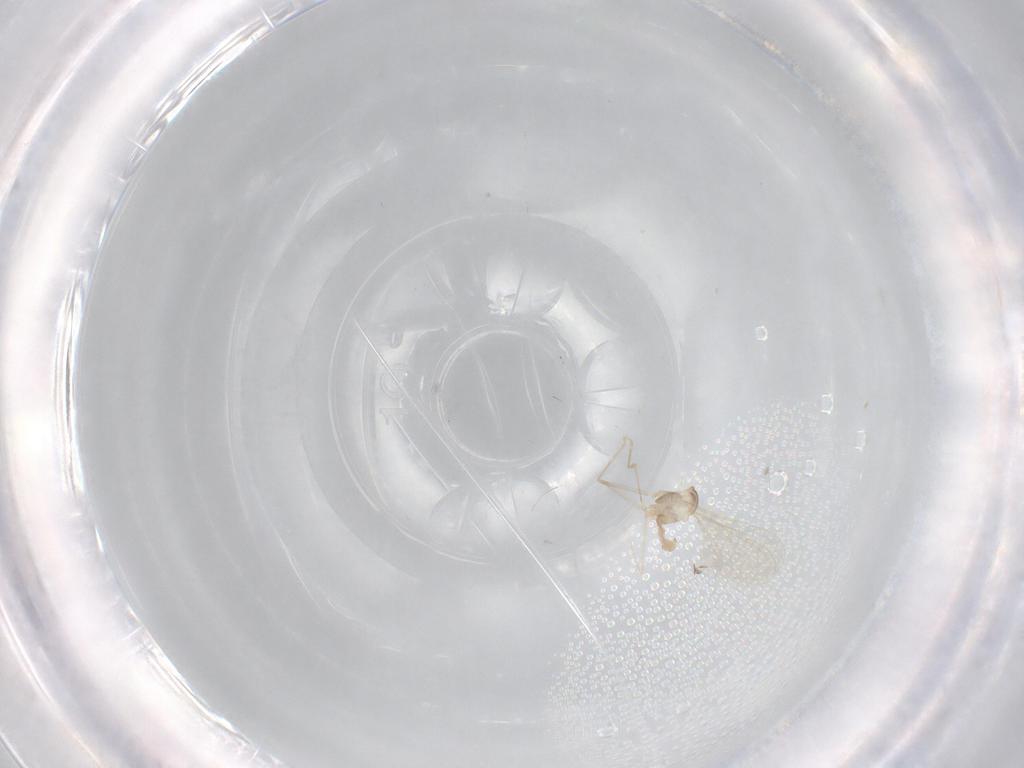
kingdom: Animalia
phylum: Arthropoda
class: Insecta
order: Diptera
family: Cecidomyiidae
